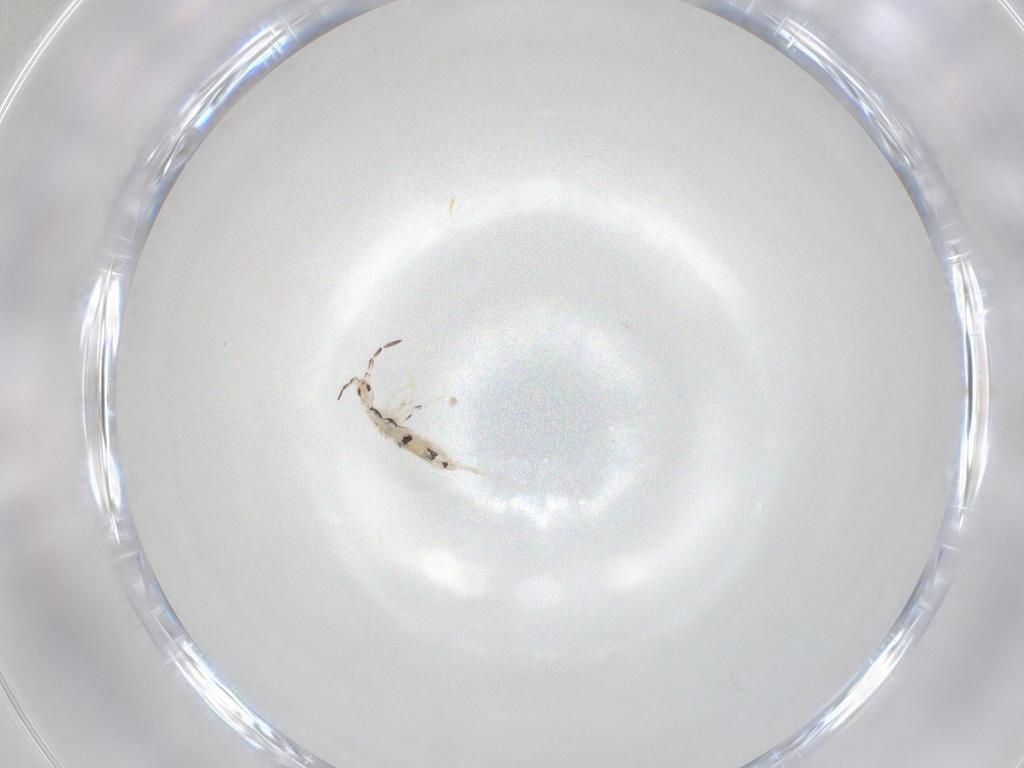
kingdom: Animalia
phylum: Arthropoda
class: Collembola
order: Entomobryomorpha
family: Entomobryidae
